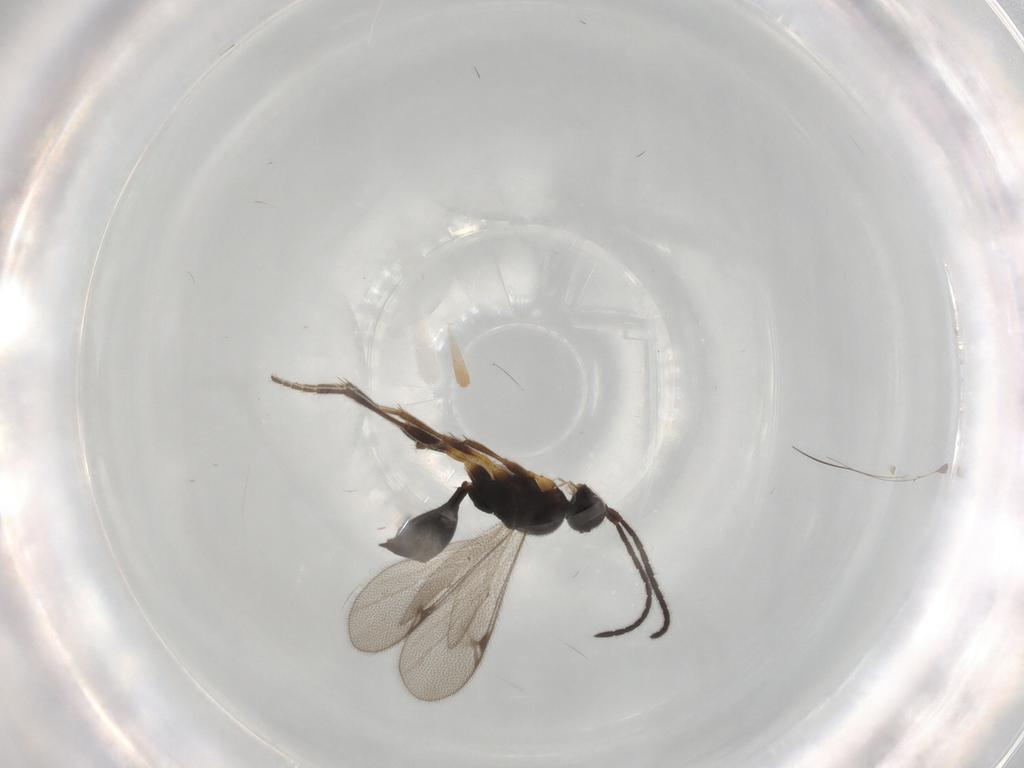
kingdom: Animalia
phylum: Arthropoda
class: Insecta
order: Hymenoptera
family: Proctotrupidae
